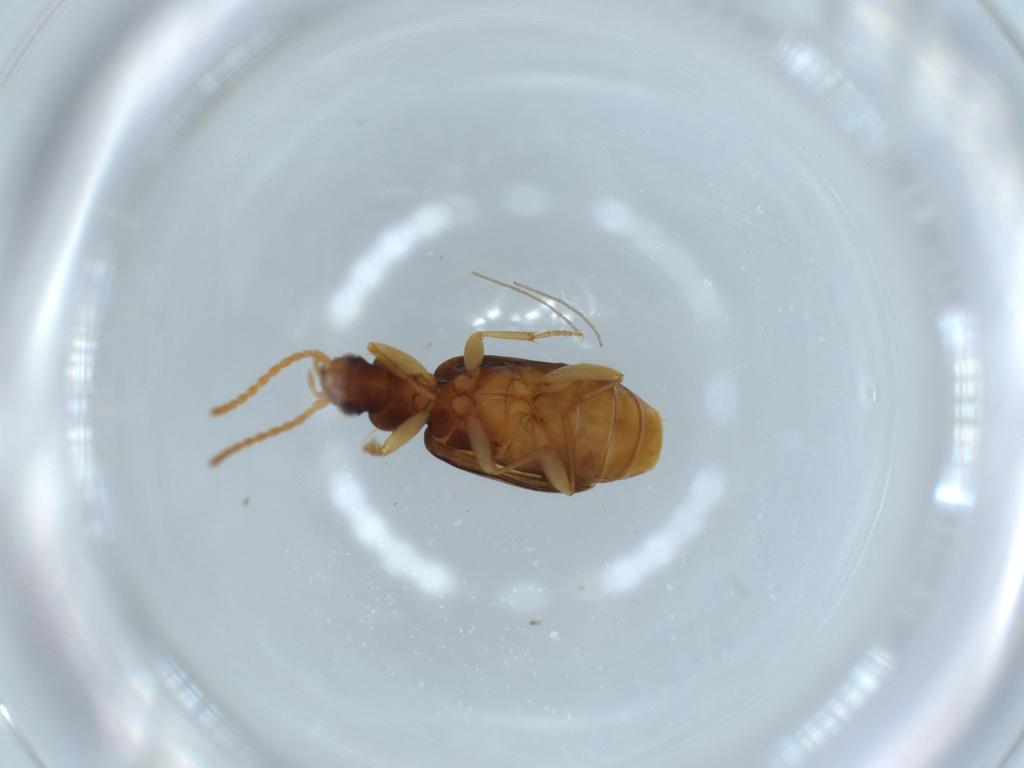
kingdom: Animalia
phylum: Arthropoda
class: Insecta
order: Coleoptera
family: Carabidae
